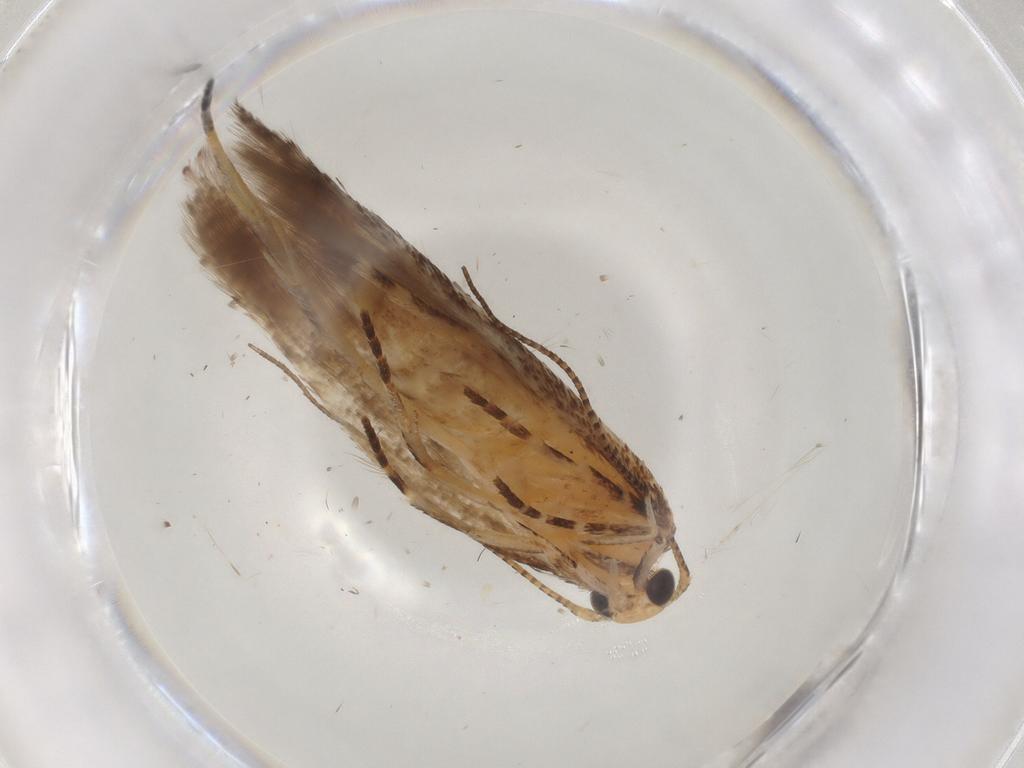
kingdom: Animalia
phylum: Arthropoda
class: Insecta
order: Lepidoptera
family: Gelechiidae
